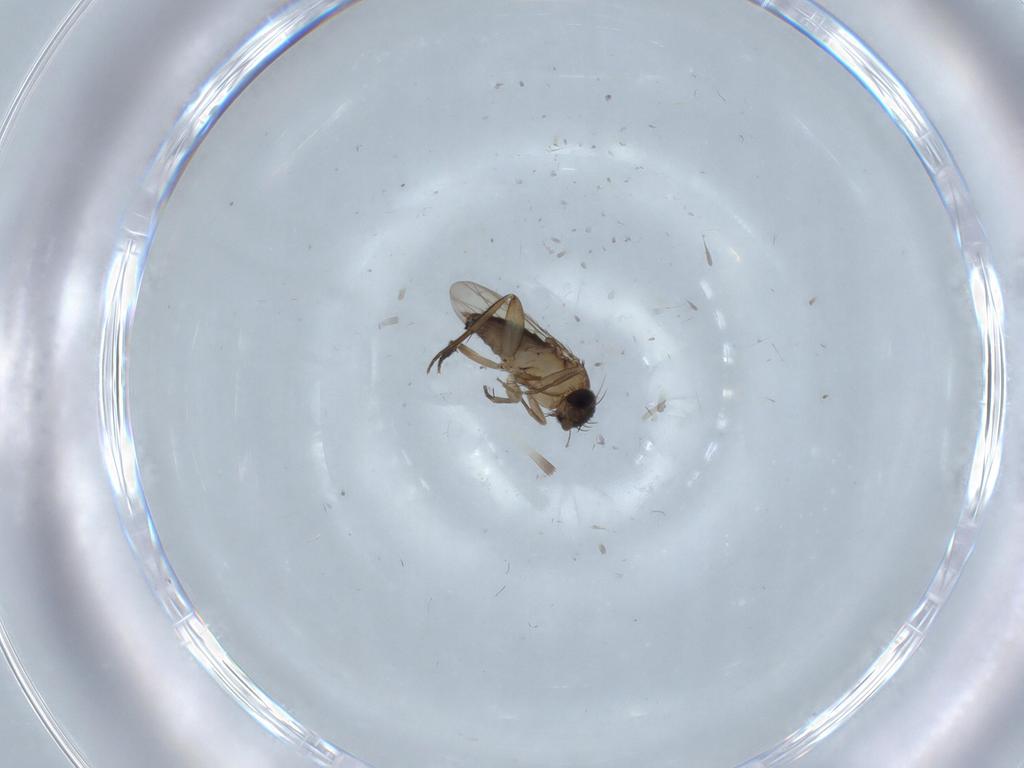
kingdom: Animalia
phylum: Arthropoda
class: Insecta
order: Diptera
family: Phoridae
